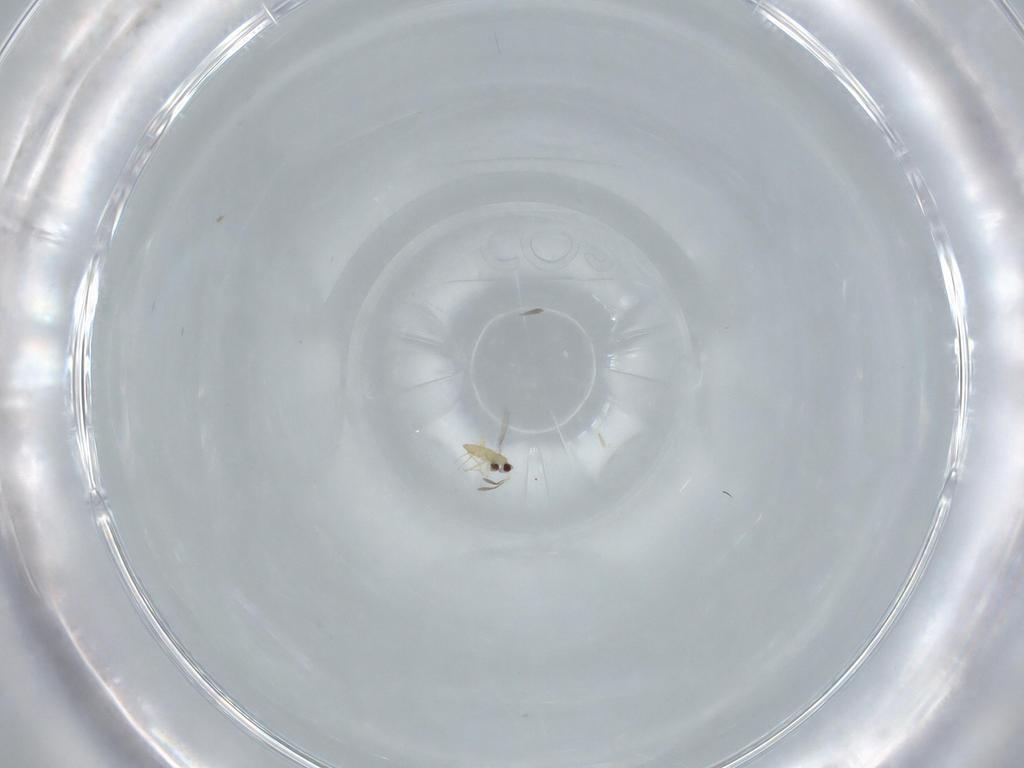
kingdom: Animalia
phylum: Arthropoda
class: Insecta
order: Hymenoptera
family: Mymaridae
